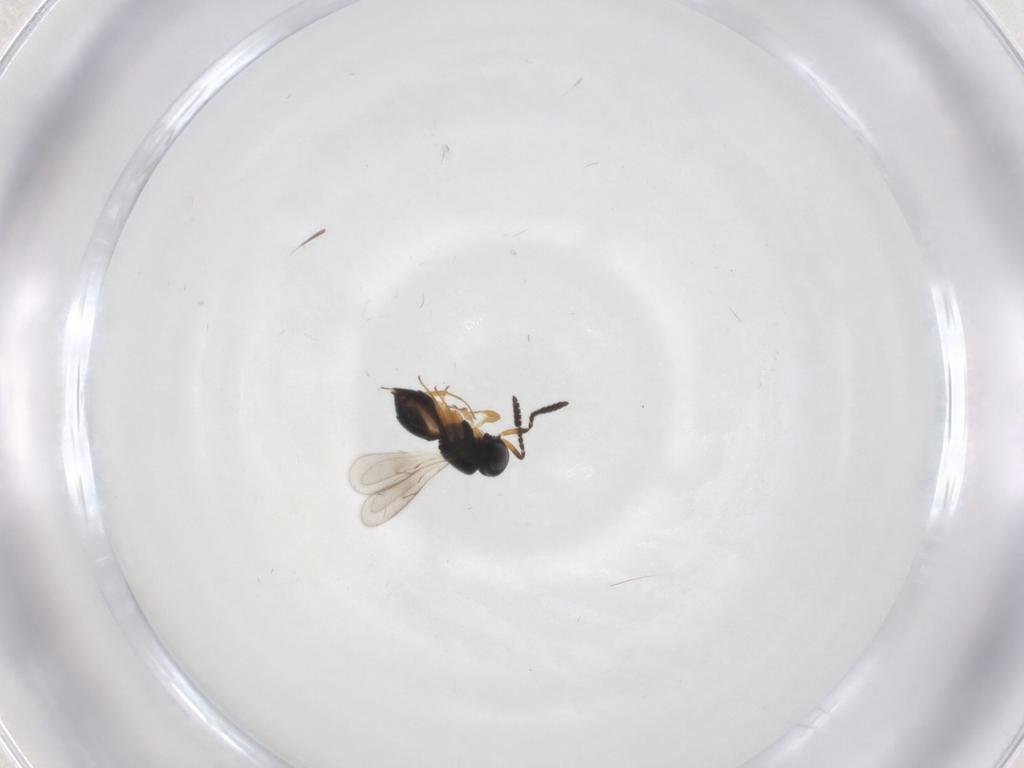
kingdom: Animalia
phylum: Arthropoda
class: Insecta
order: Hymenoptera
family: Scelionidae
